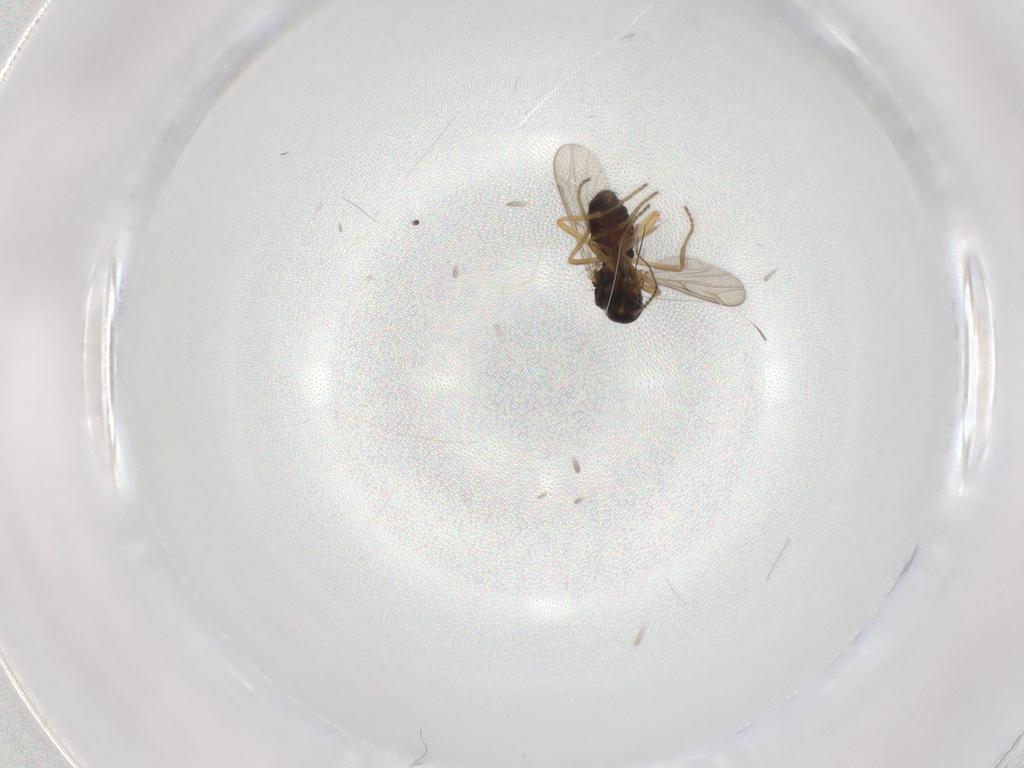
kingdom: Animalia
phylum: Arthropoda
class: Insecta
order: Diptera
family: Ceratopogonidae
